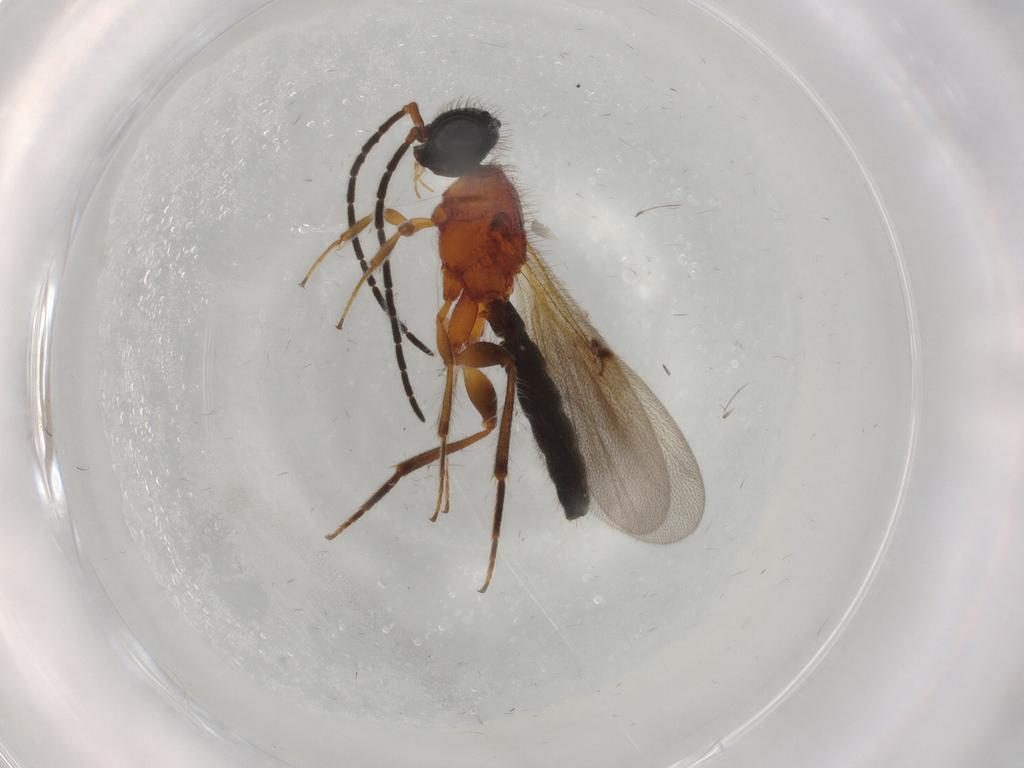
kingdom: Animalia
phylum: Arthropoda
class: Insecta
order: Hymenoptera
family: Scelionidae
